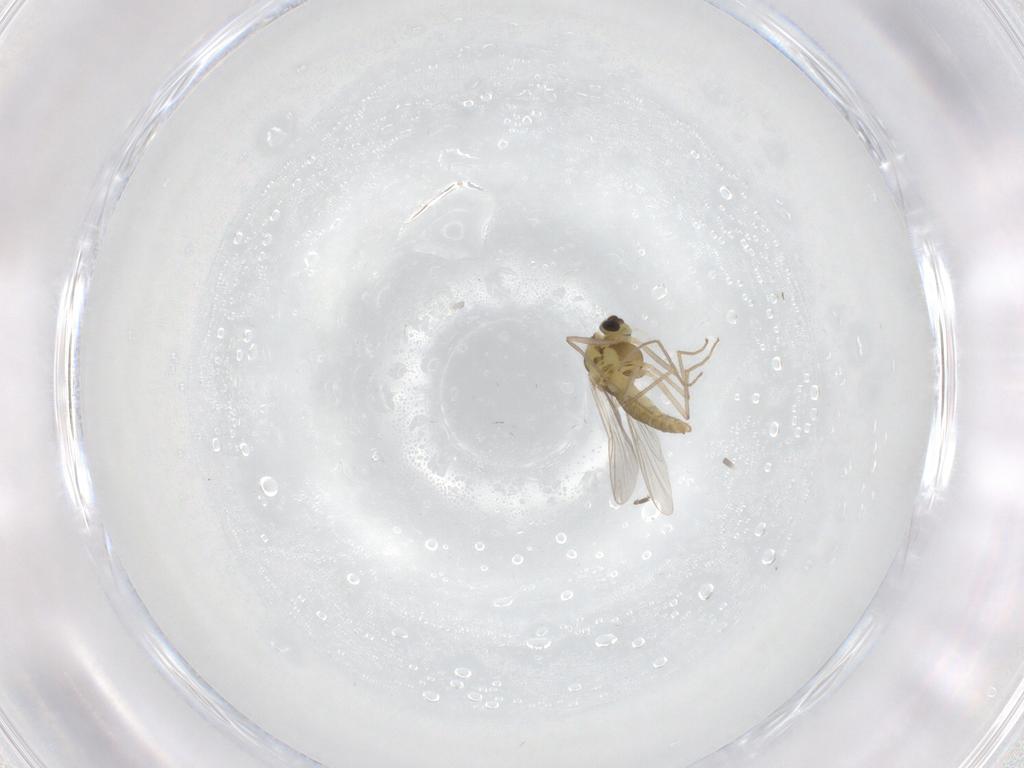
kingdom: Animalia
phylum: Arthropoda
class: Insecta
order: Diptera
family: Chironomidae
